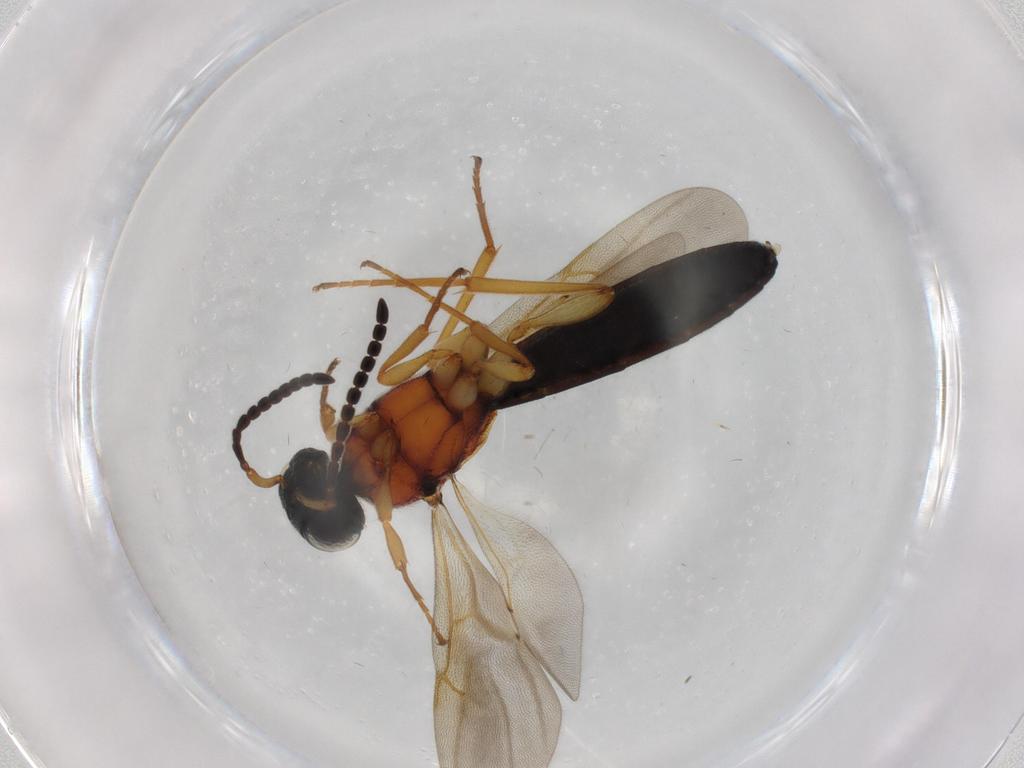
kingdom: Animalia
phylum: Arthropoda
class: Insecta
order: Hymenoptera
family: Scelionidae
